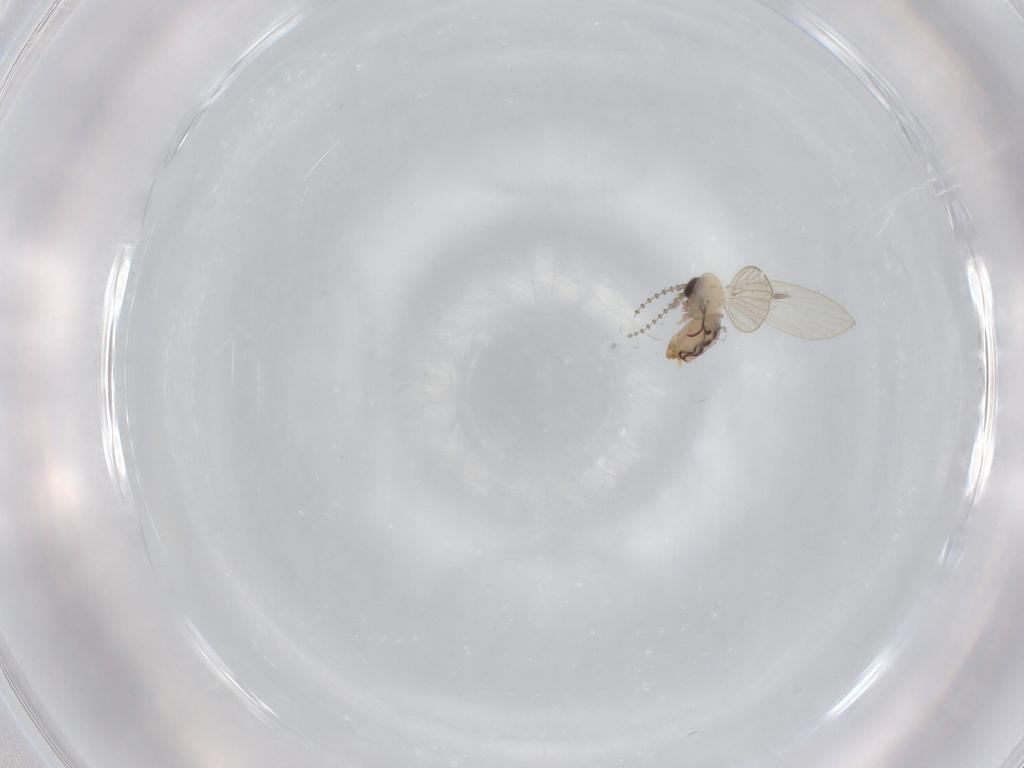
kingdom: Animalia
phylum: Arthropoda
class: Insecta
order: Diptera
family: Psychodidae
